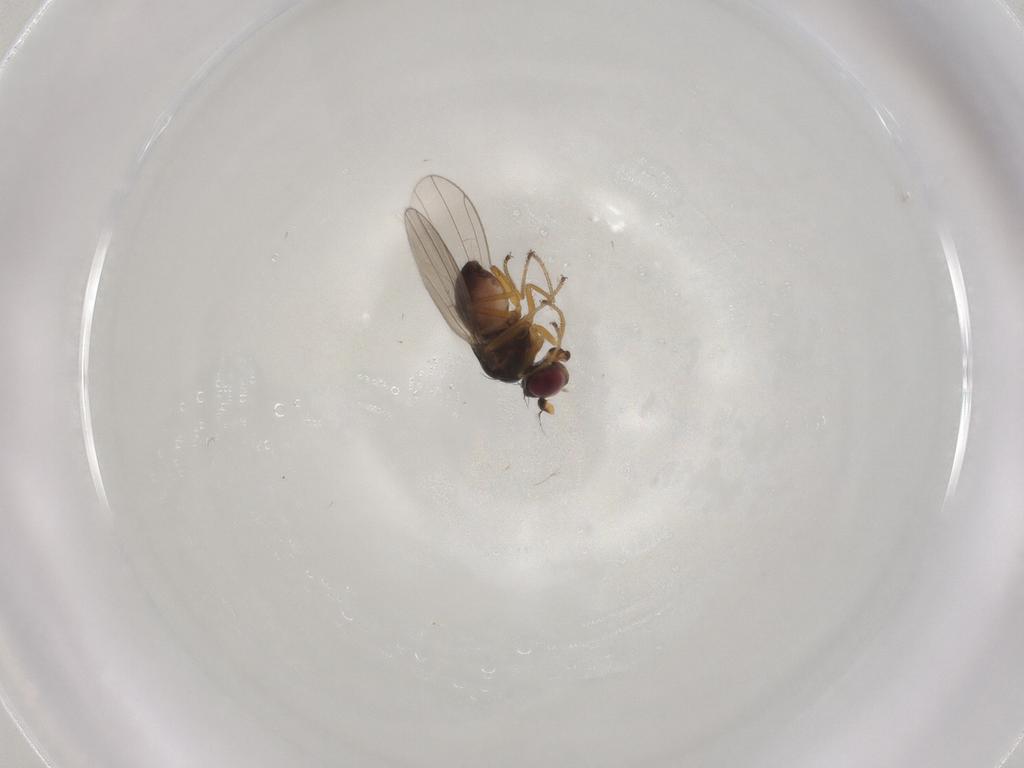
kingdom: Animalia
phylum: Arthropoda
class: Insecta
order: Diptera
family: Ephydridae
